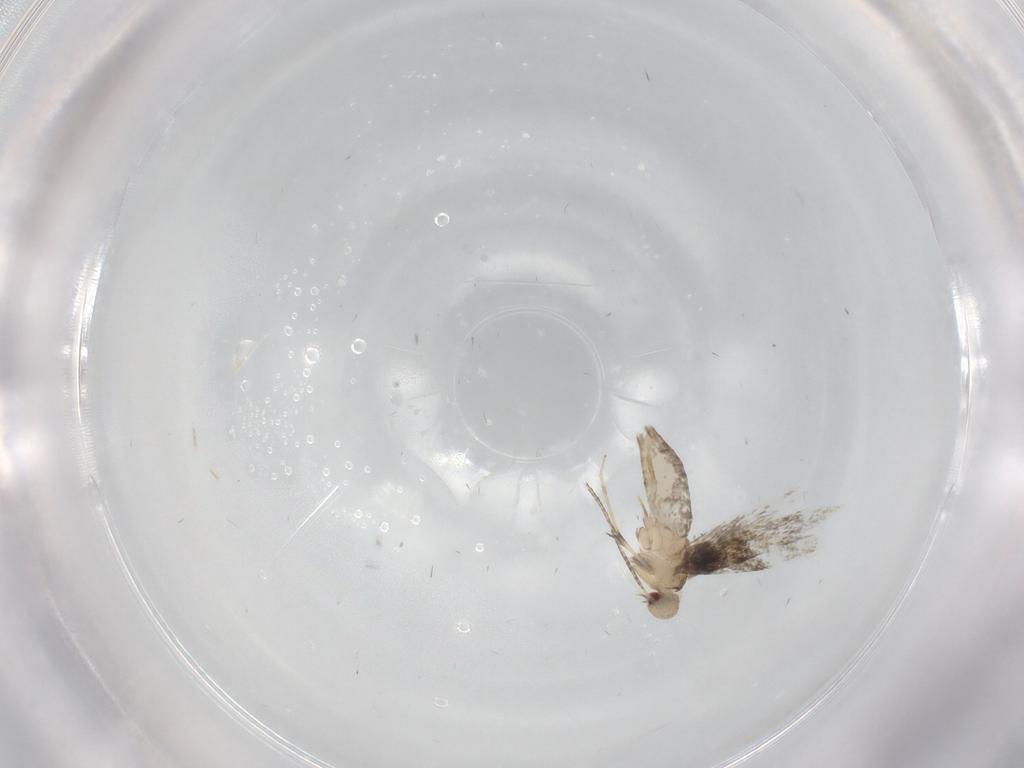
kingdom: Animalia
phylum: Arthropoda
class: Insecta
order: Lepidoptera
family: Gracillariidae
